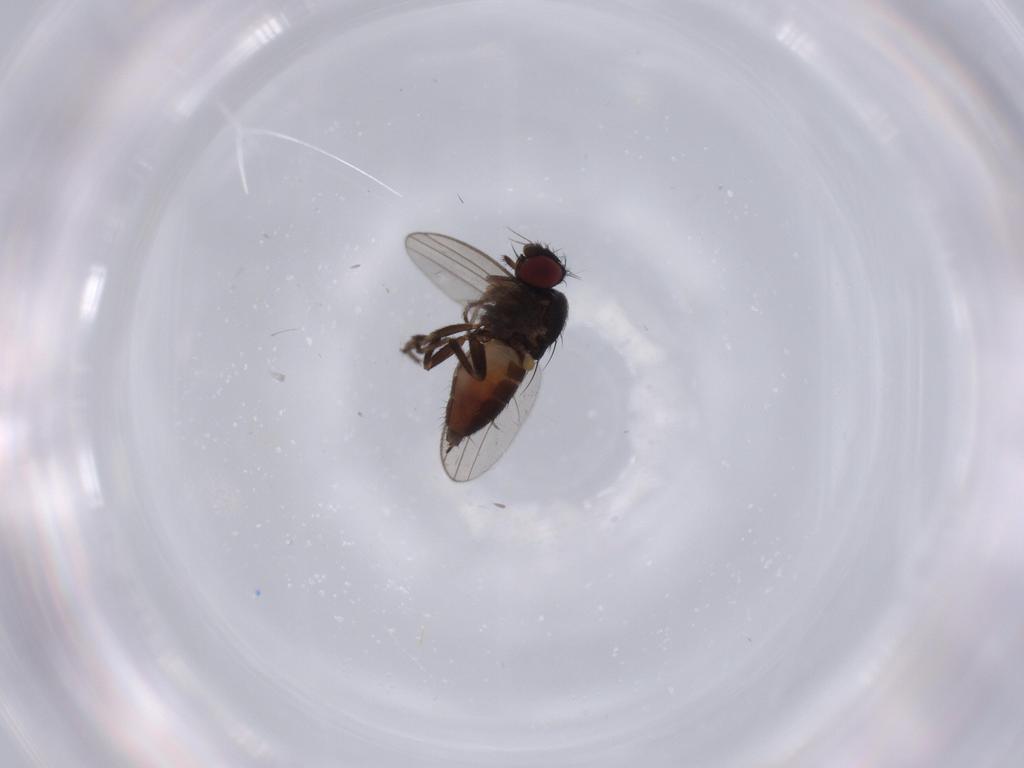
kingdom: Animalia
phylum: Arthropoda
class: Insecta
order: Diptera
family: Milichiidae
